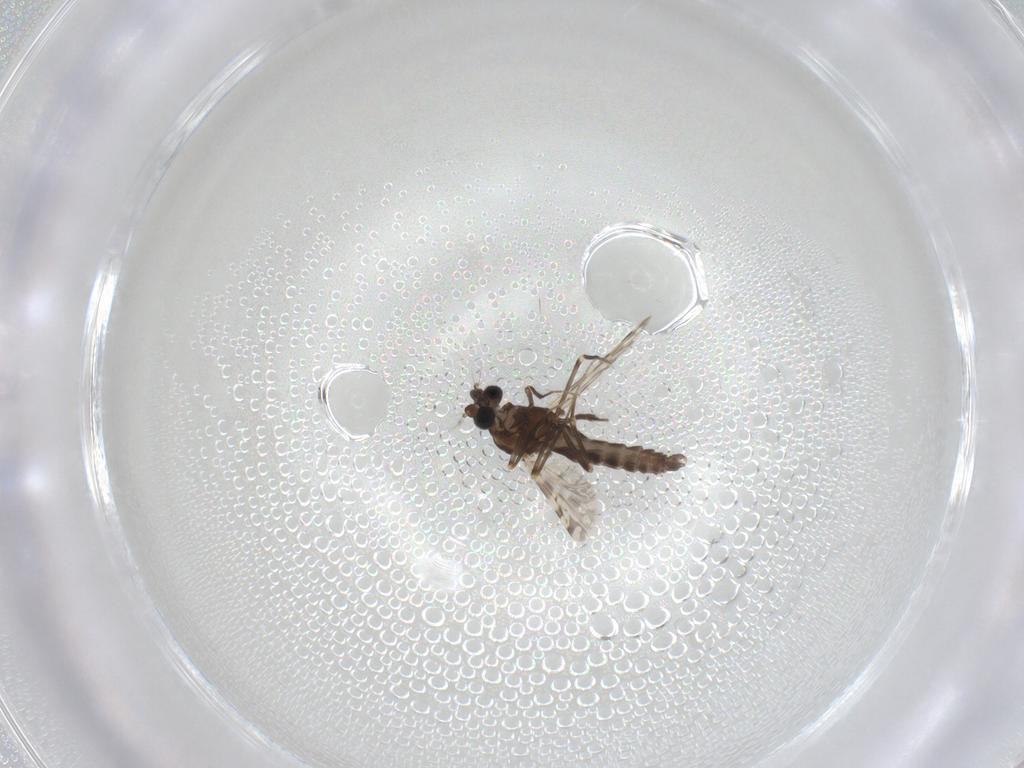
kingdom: Animalia
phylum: Arthropoda
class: Insecta
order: Diptera
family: Ceratopogonidae
